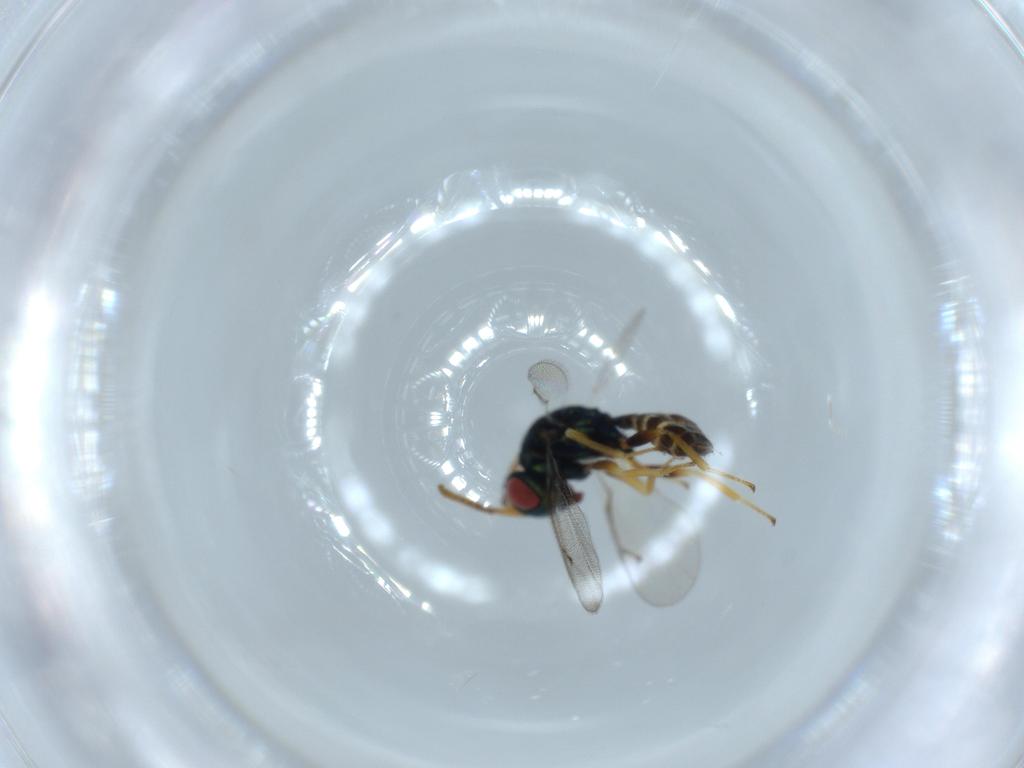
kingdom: Animalia
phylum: Arthropoda
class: Insecta
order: Hymenoptera
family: Pteromalidae
